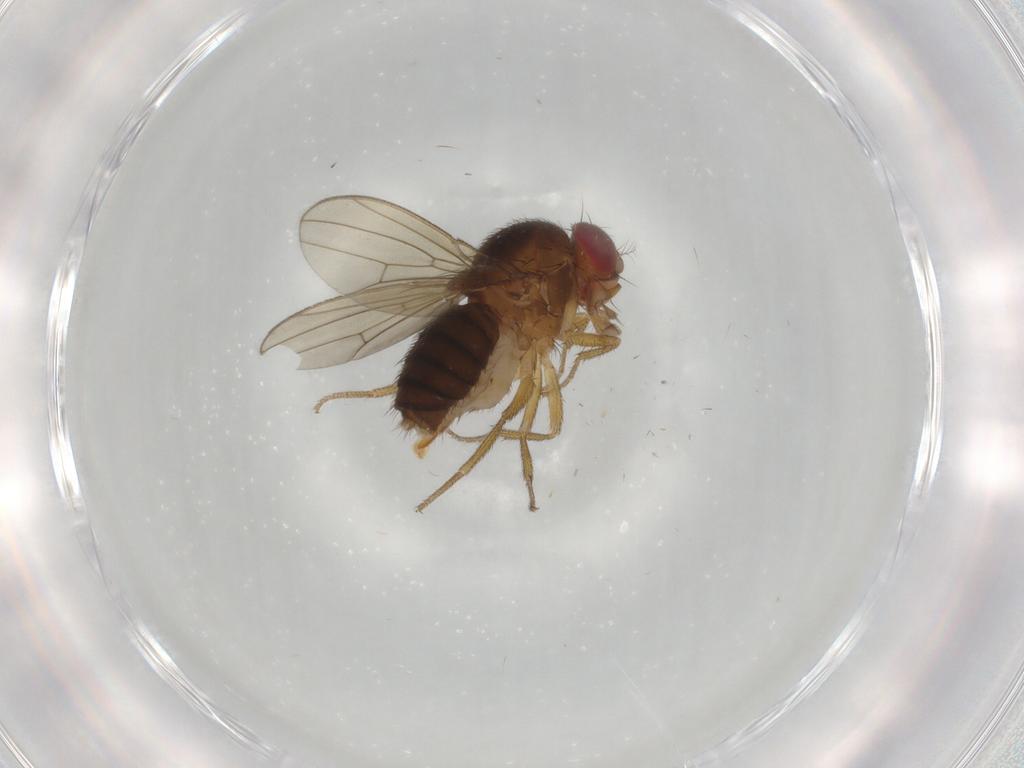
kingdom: Animalia
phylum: Arthropoda
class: Insecta
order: Diptera
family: Drosophilidae
